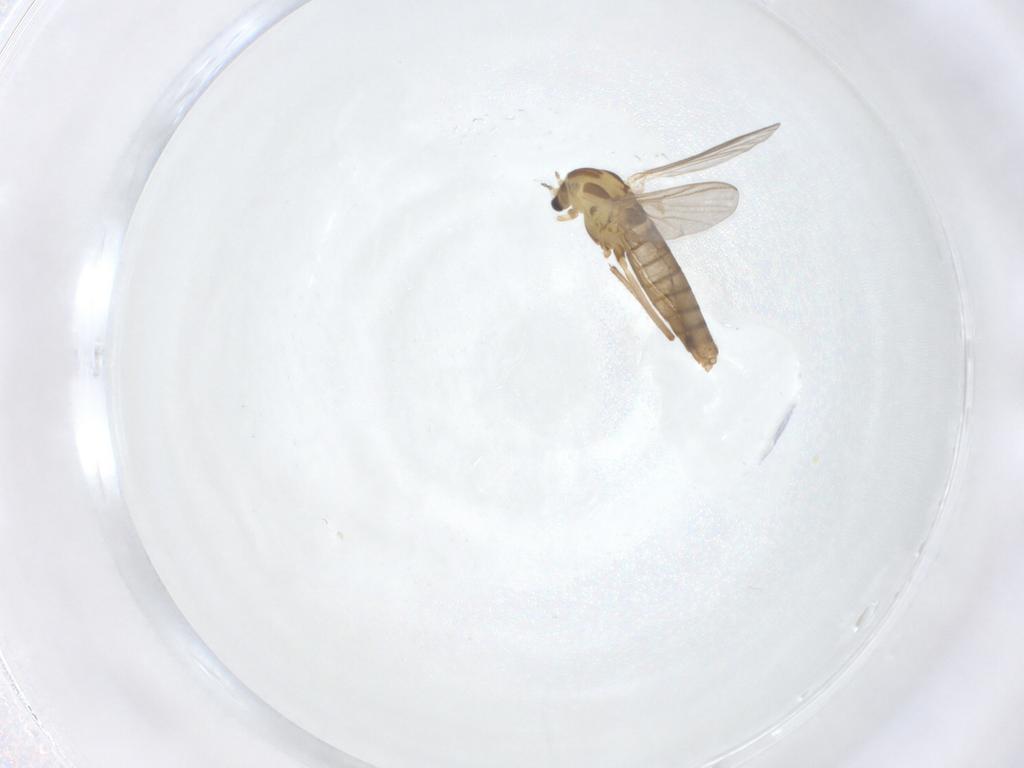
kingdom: Animalia
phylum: Arthropoda
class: Insecta
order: Diptera
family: Chironomidae
